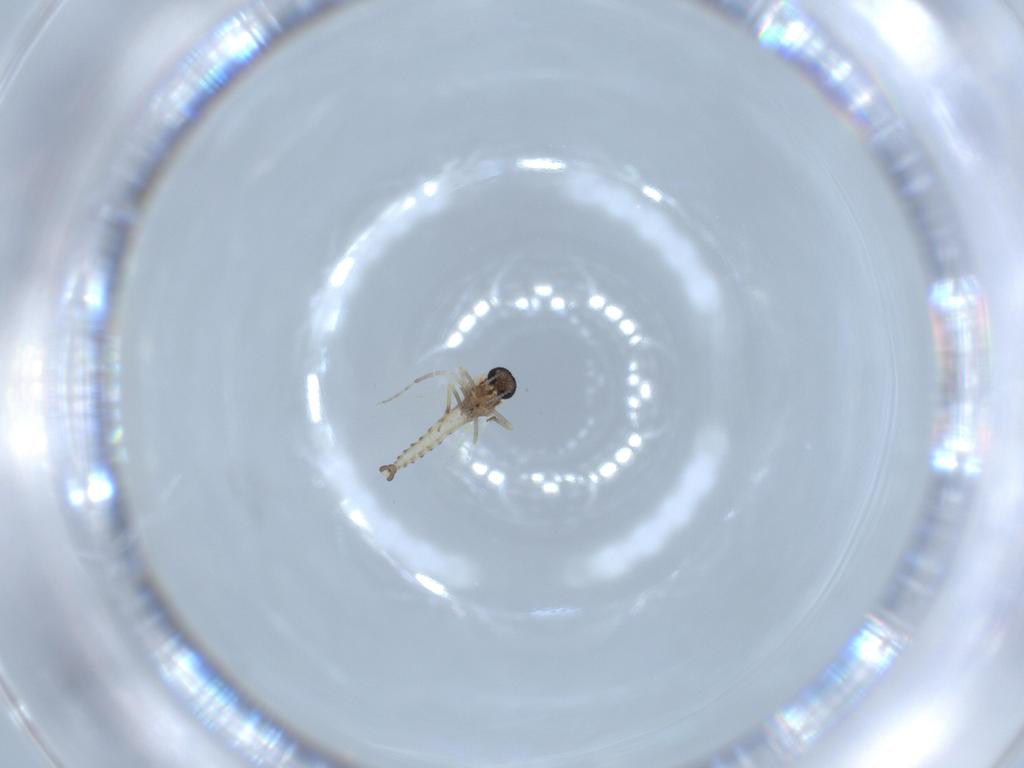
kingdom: Animalia
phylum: Arthropoda
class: Insecta
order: Diptera
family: Ceratopogonidae
